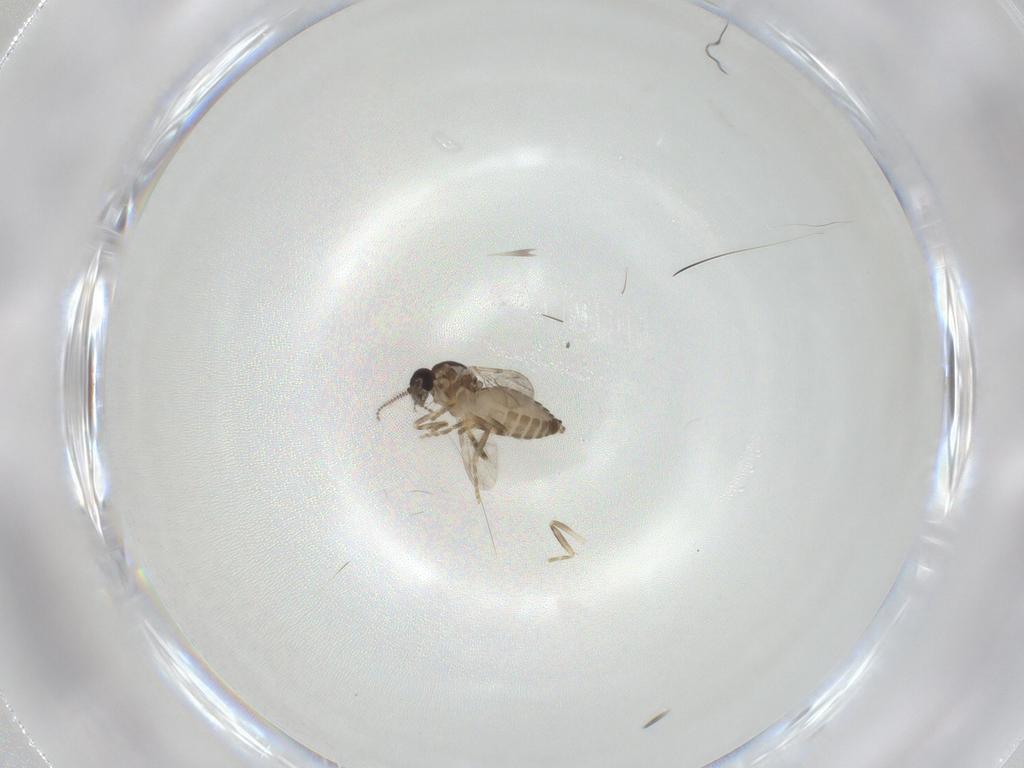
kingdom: Animalia
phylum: Arthropoda
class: Insecta
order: Diptera
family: Ceratopogonidae
